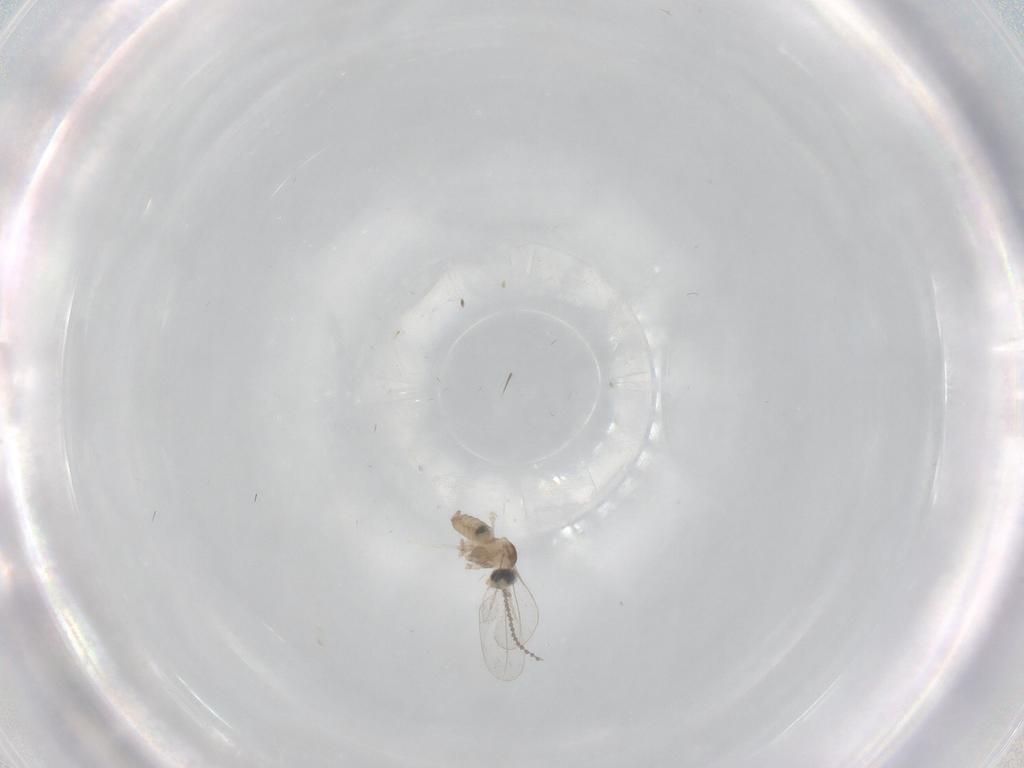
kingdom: Animalia
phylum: Arthropoda
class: Insecta
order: Diptera
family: Cecidomyiidae
